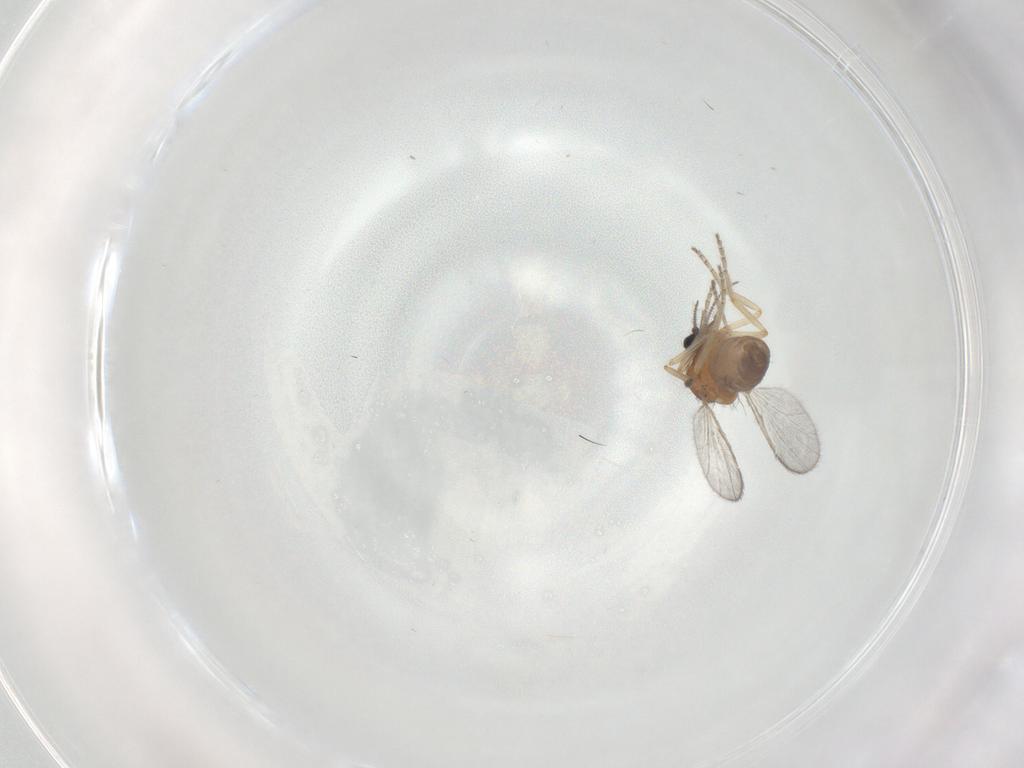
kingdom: Animalia
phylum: Arthropoda
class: Insecta
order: Diptera
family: Ceratopogonidae
